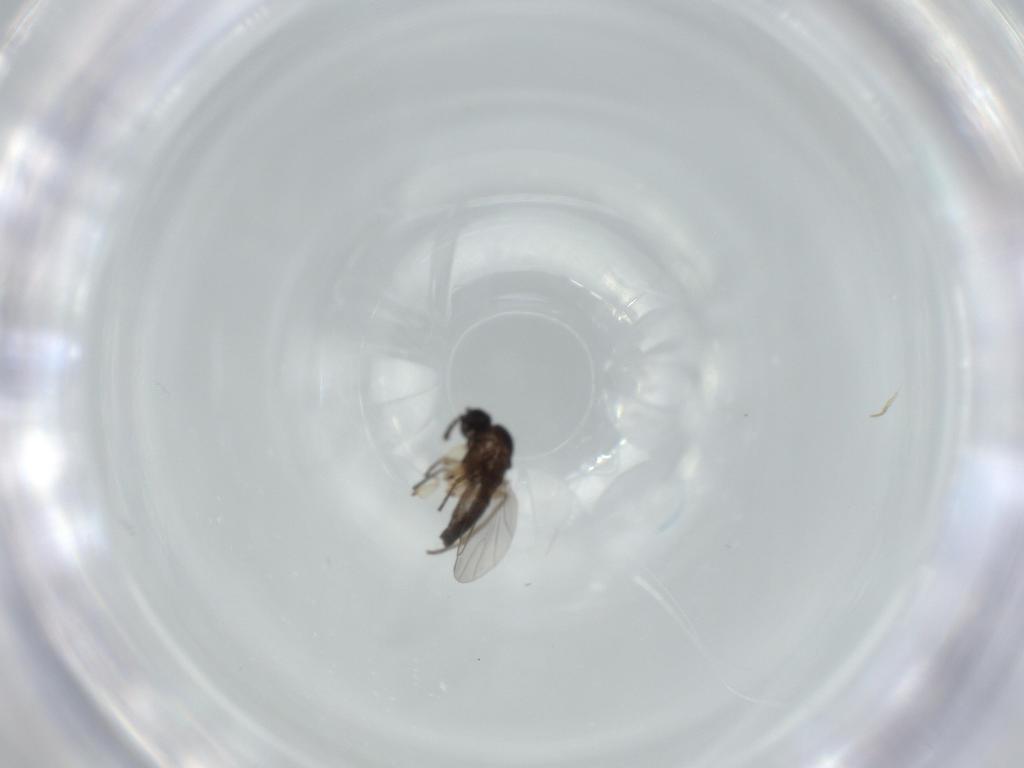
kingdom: Animalia
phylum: Arthropoda
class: Insecta
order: Diptera
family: Sciaridae
